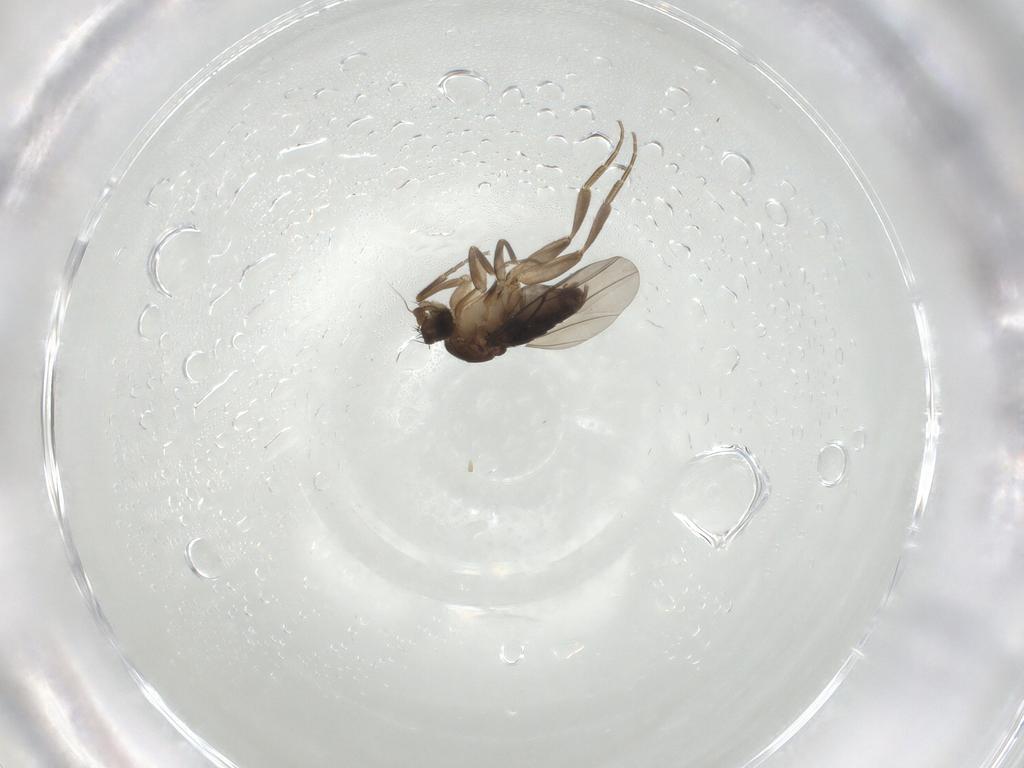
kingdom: Animalia
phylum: Arthropoda
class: Insecta
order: Diptera
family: Phoridae
